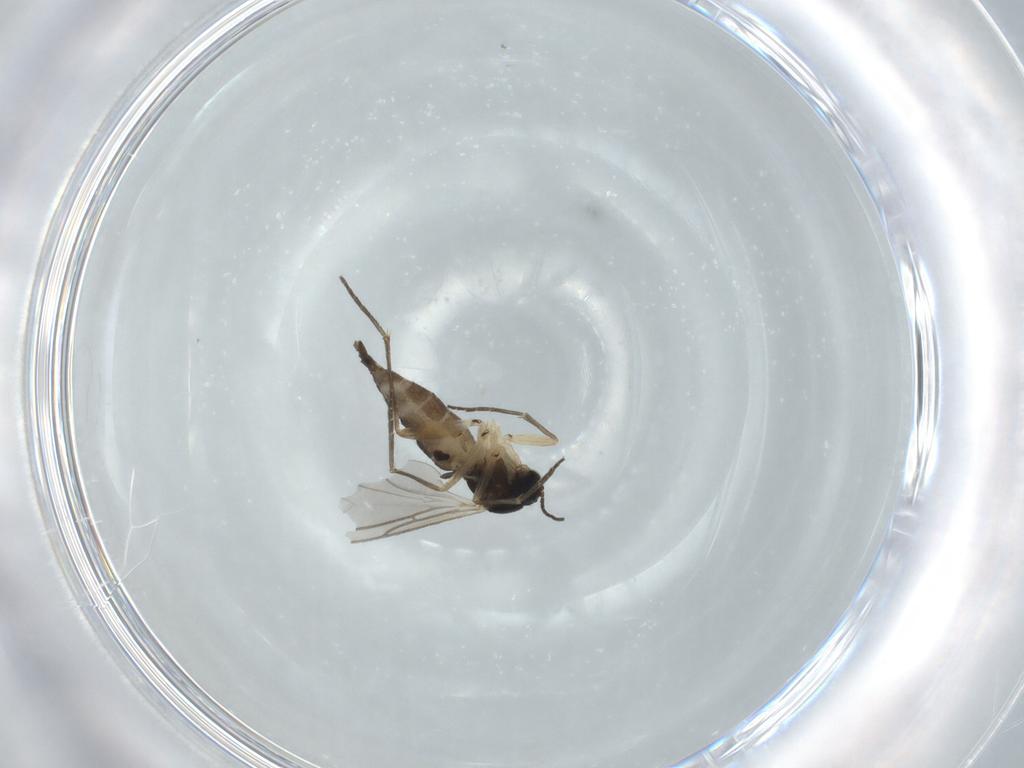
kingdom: Animalia
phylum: Arthropoda
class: Insecta
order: Diptera
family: Sciaridae
